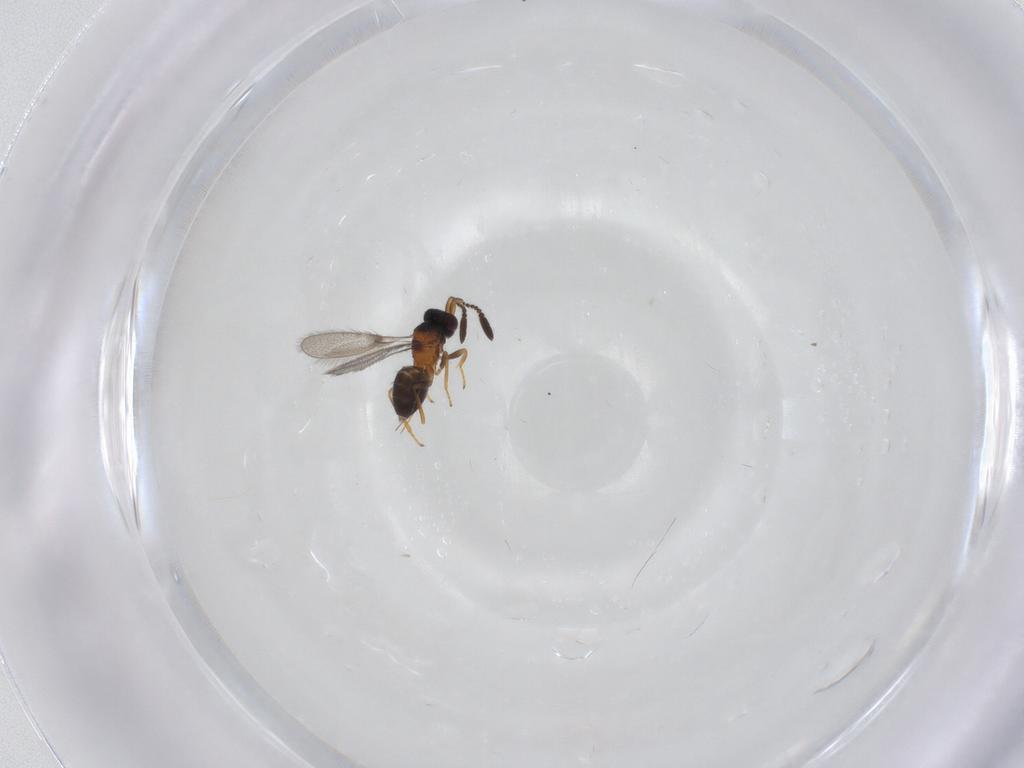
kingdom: Animalia
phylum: Arthropoda
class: Insecta
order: Hymenoptera
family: Mymaridae
